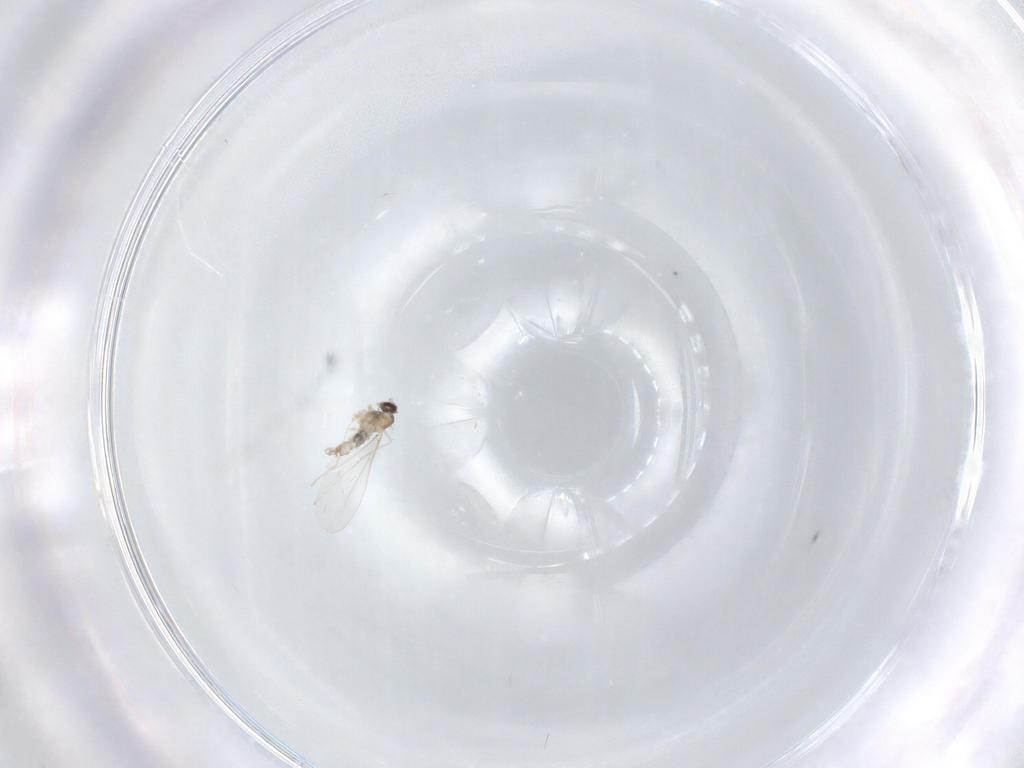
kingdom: Animalia
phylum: Arthropoda
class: Insecta
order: Diptera
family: Cecidomyiidae
